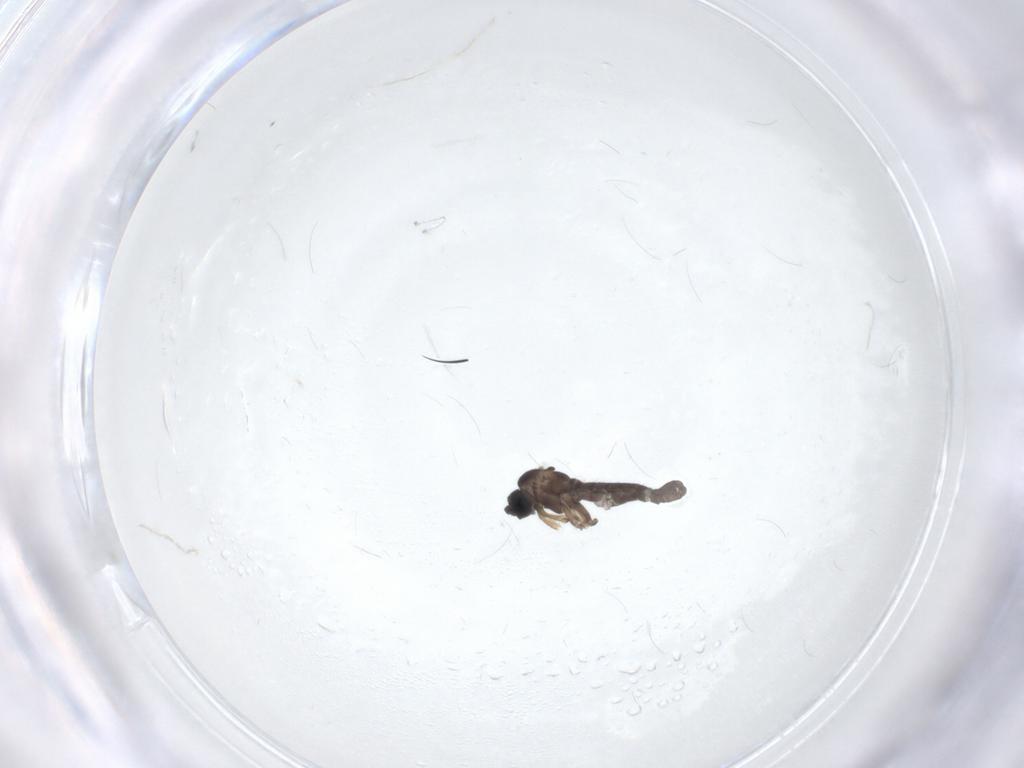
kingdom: Animalia
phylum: Arthropoda
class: Insecta
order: Diptera
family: Sciaridae
